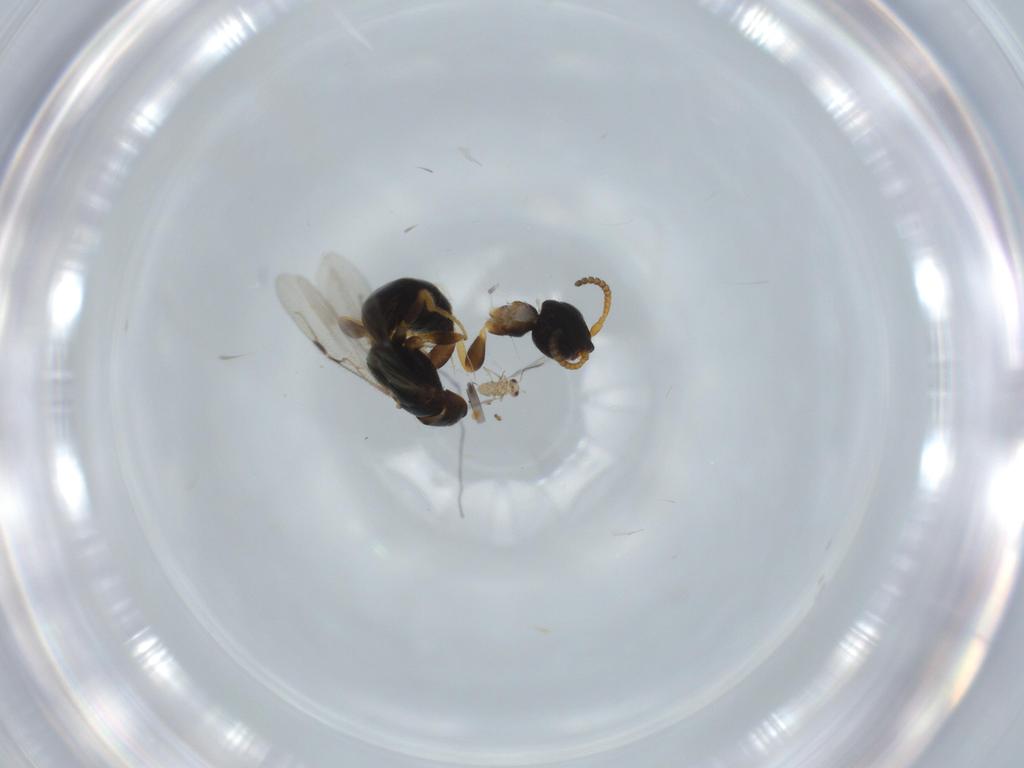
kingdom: Animalia
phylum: Arthropoda
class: Insecta
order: Hymenoptera
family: Bethylidae
